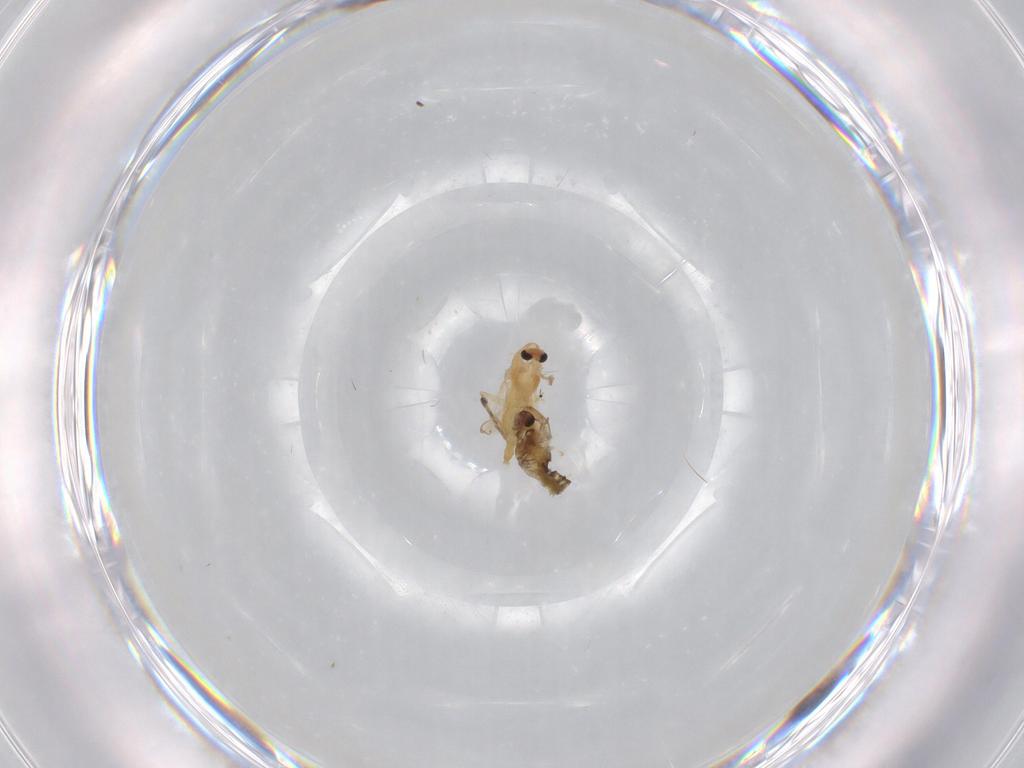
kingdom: Animalia
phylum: Arthropoda
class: Insecta
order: Diptera
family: Chironomidae
